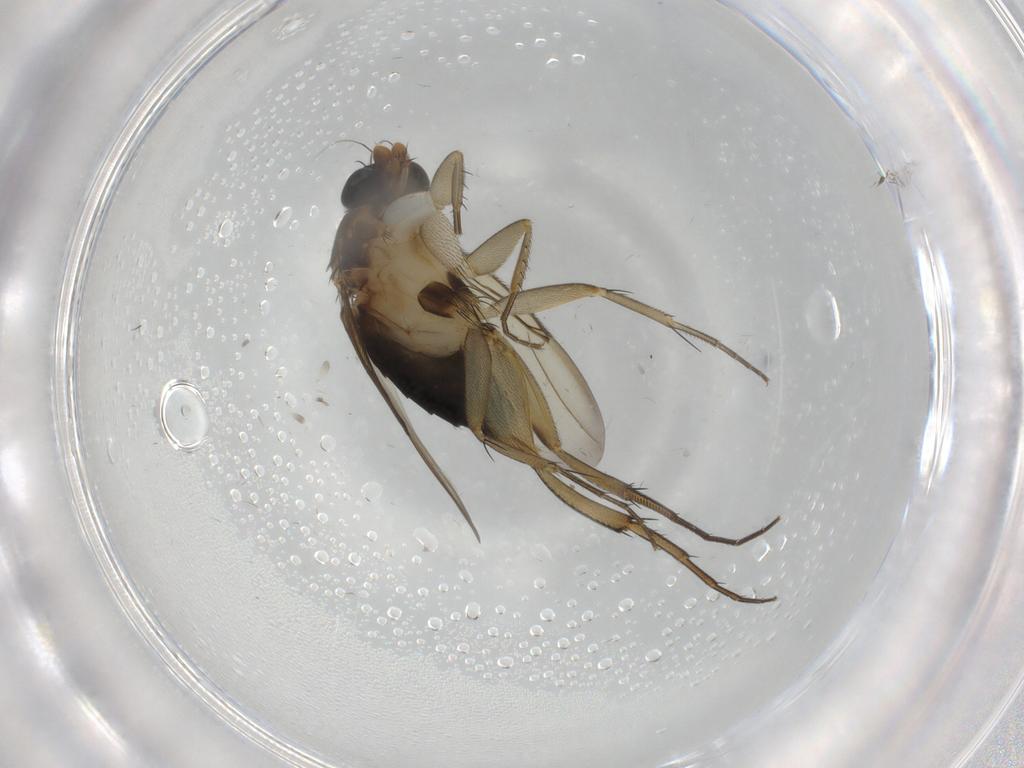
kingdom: Animalia
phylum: Arthropoda
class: Insecta
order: Diptera
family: Phoridae
